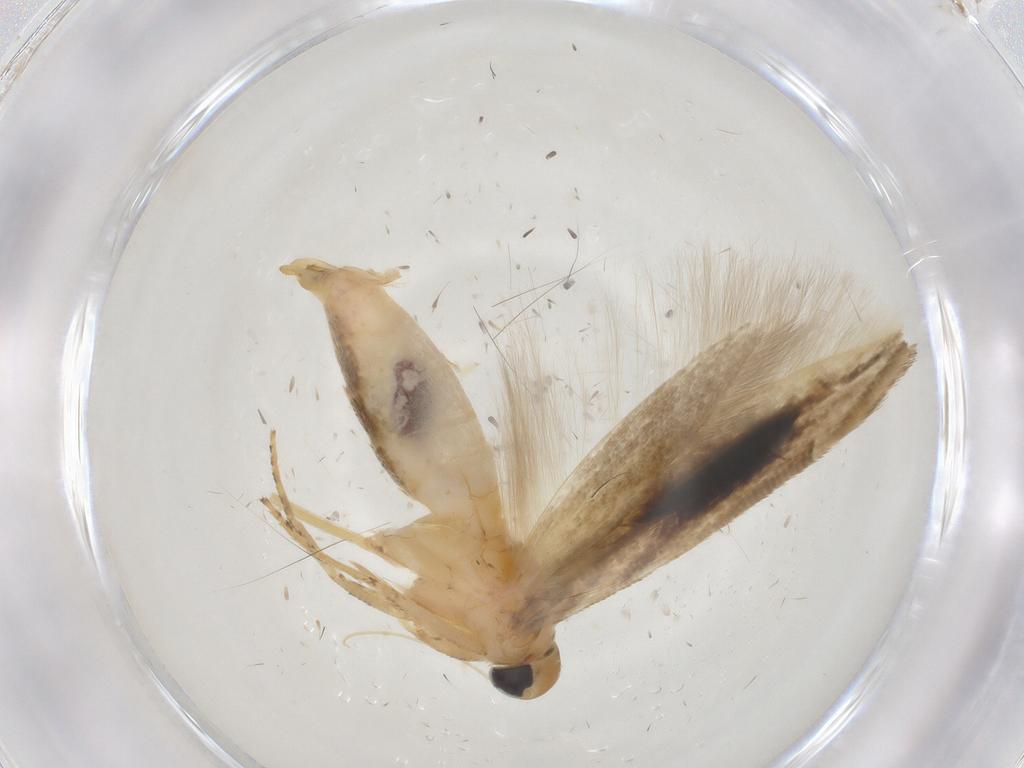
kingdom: Animalia
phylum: Arthropoda
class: Insecta
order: Lepidoptera
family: Momphidae
